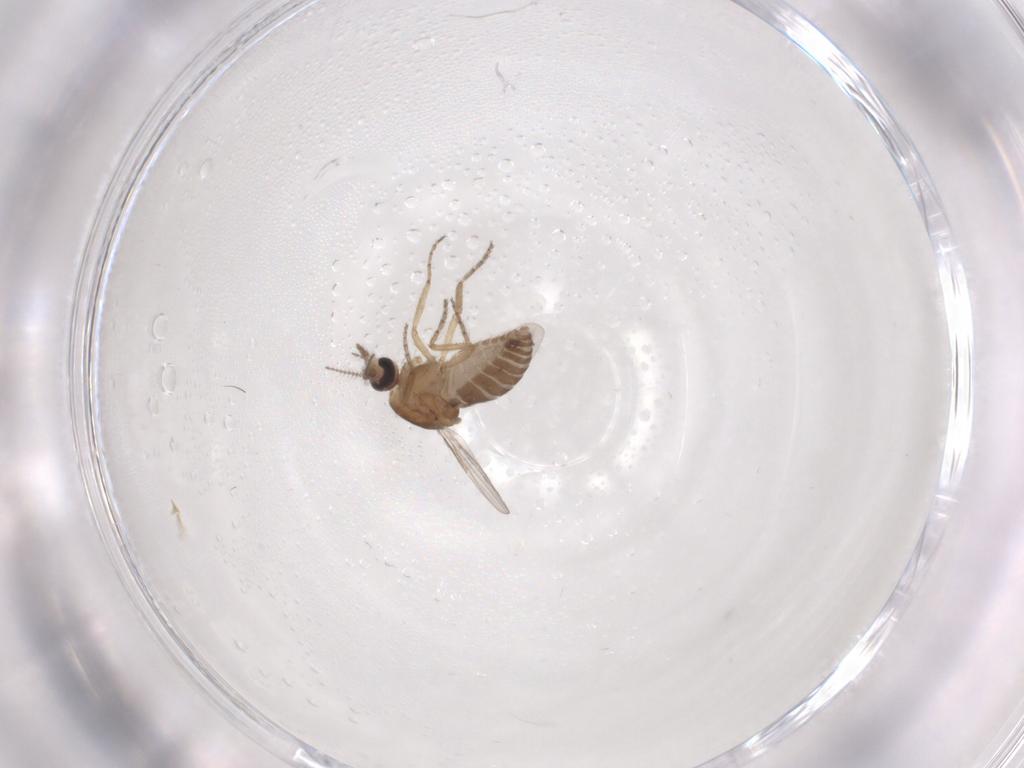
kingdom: Animalia
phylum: Arthropoda
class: Insecta
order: Diptera
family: Ceratopogonidae
